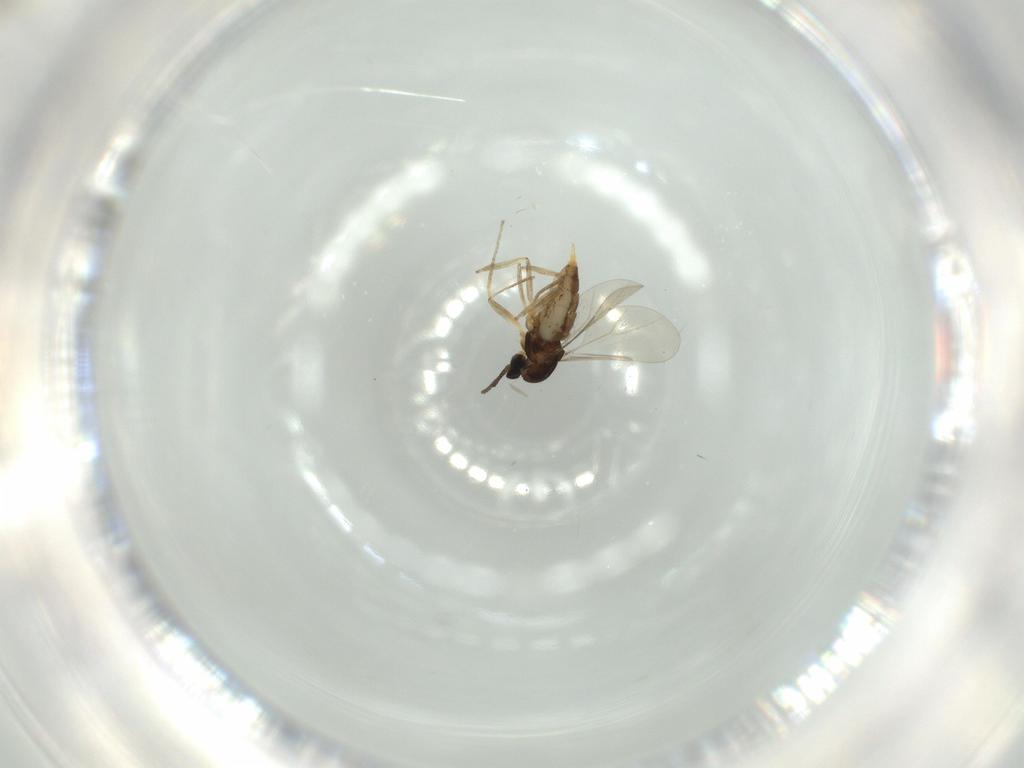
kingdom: Animalia
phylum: Arthropoda
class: Insecta
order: Diptera
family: Cecidomyiidae
